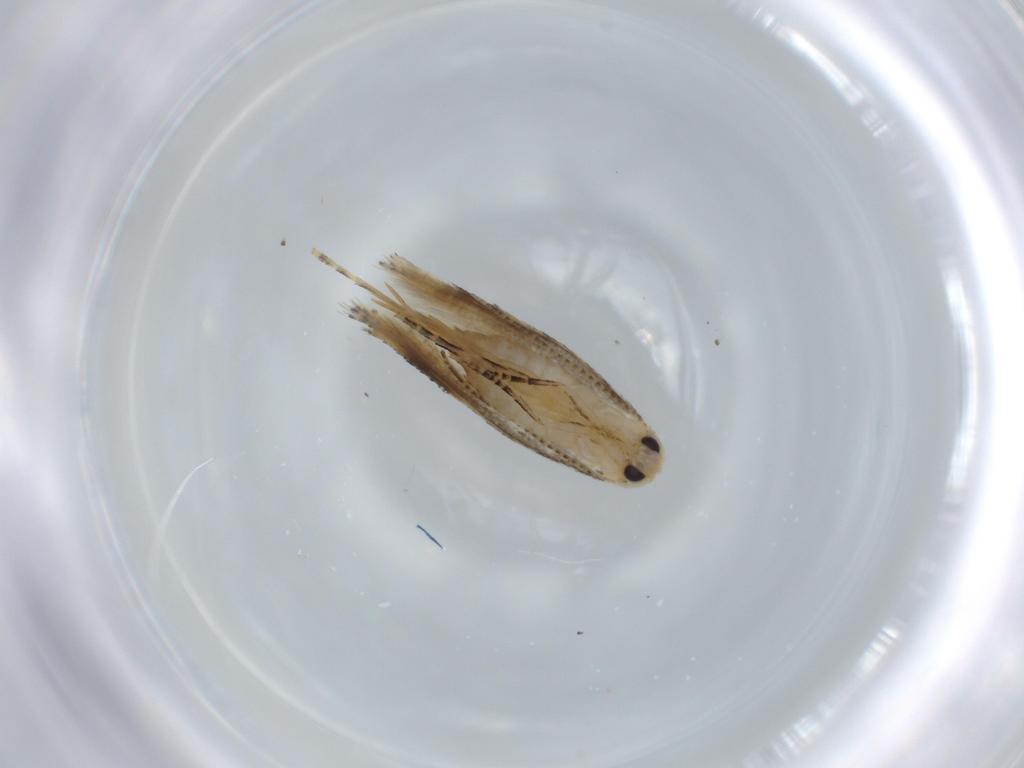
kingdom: Animalia
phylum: Arthropoda
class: Insecta
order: Lepidoptera
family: Bucculatricidae
